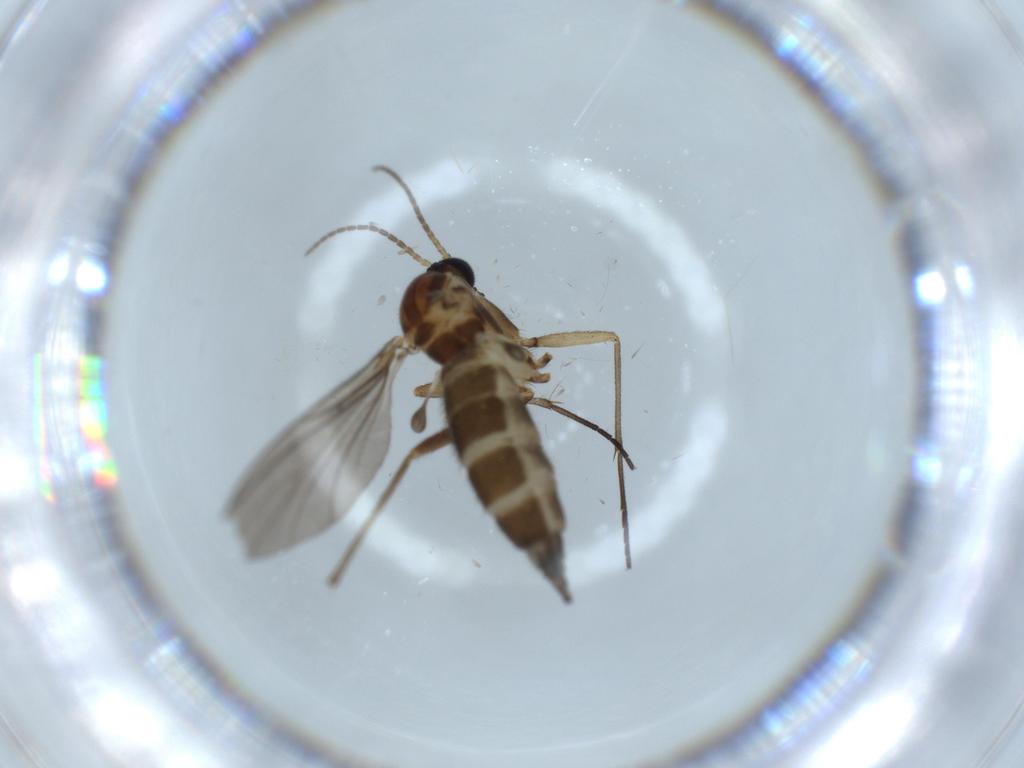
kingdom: Animalia
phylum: Arthropoda
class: Insecta
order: Diptera
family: Sciaridae
